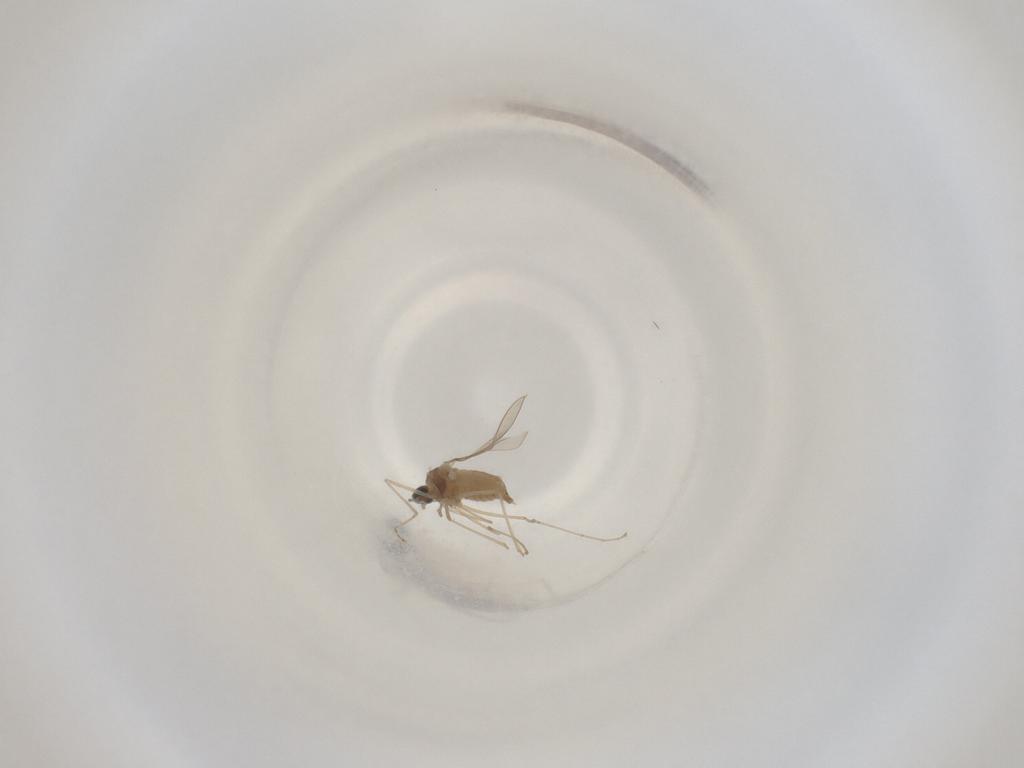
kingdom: Animalia
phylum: Arthropoda
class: Insecta
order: Diptera
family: Cecidomyiidae
